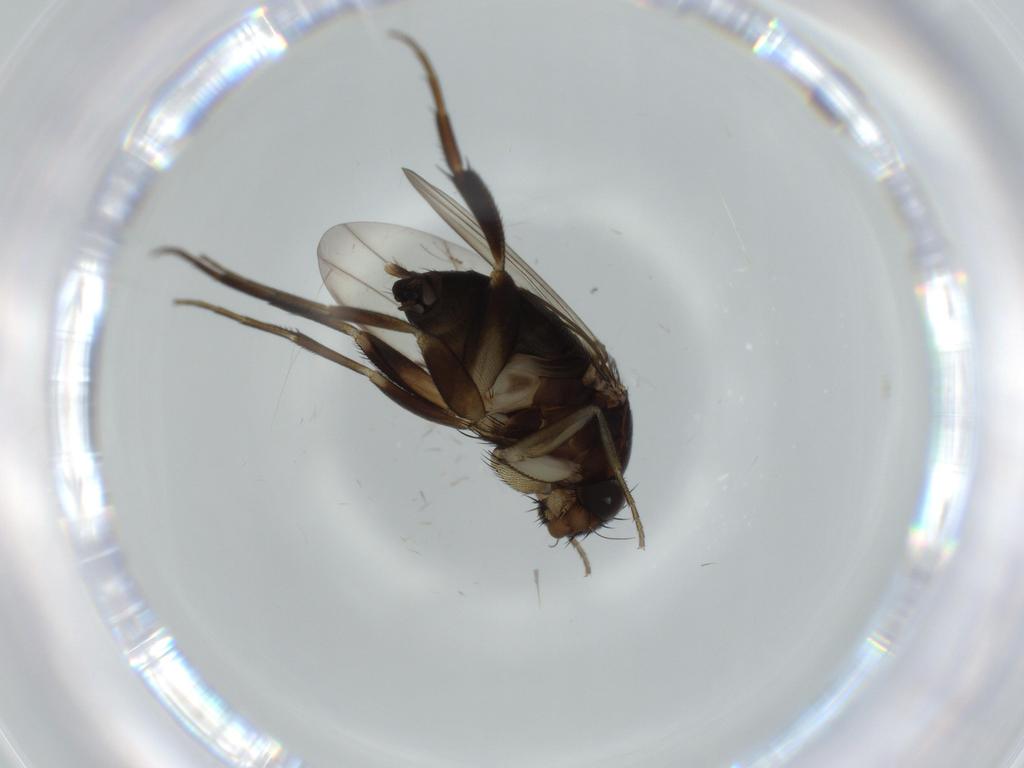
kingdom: Animalia
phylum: Arthropoda
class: Insecta
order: Diptera
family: Phoridae
